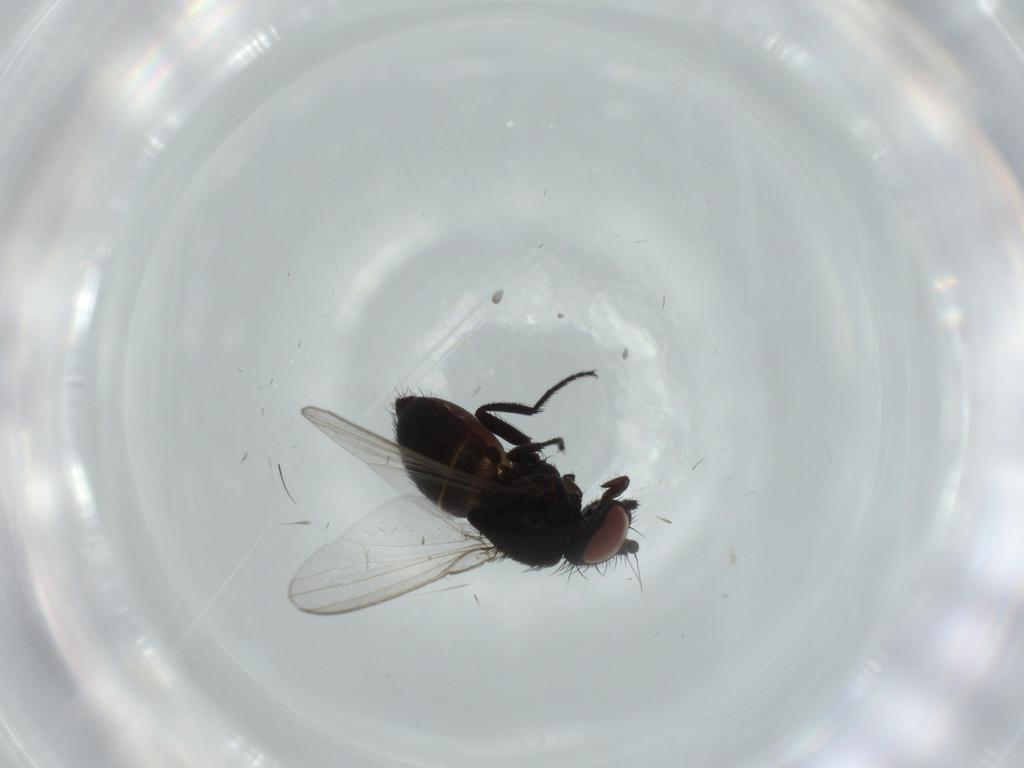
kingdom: Animalia
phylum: Arthropoda
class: Insecta
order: Diptera
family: Milichiidae
